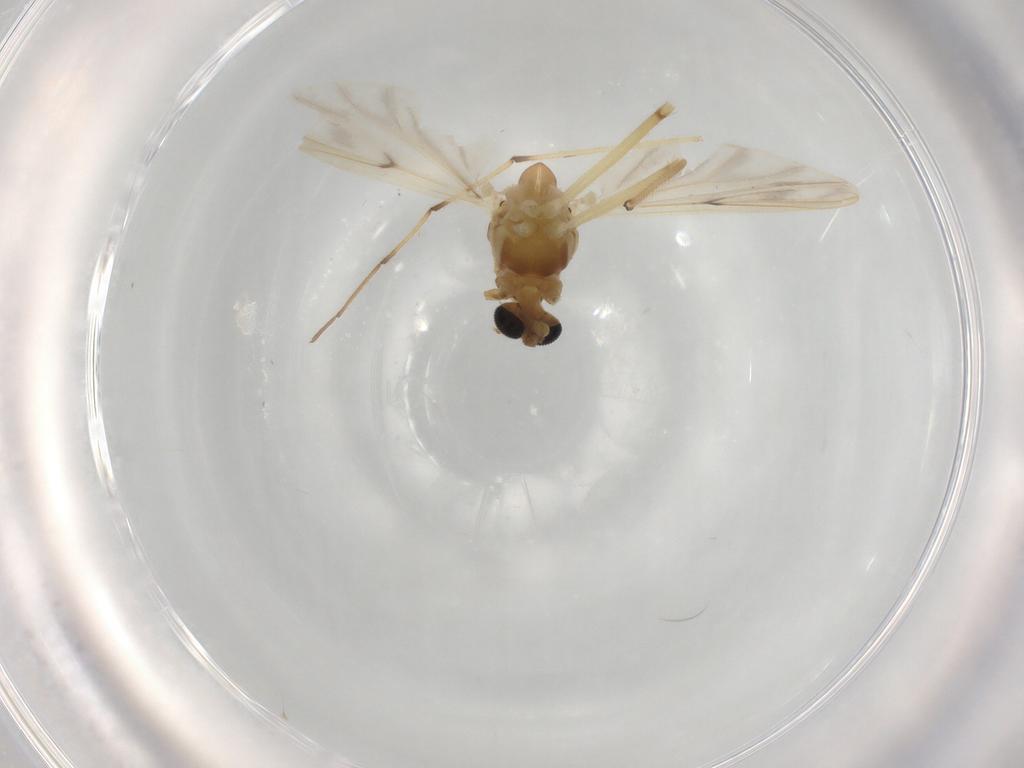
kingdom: Animalia
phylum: Arthropoda
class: Insecta
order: Diptera
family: Chironomidae
